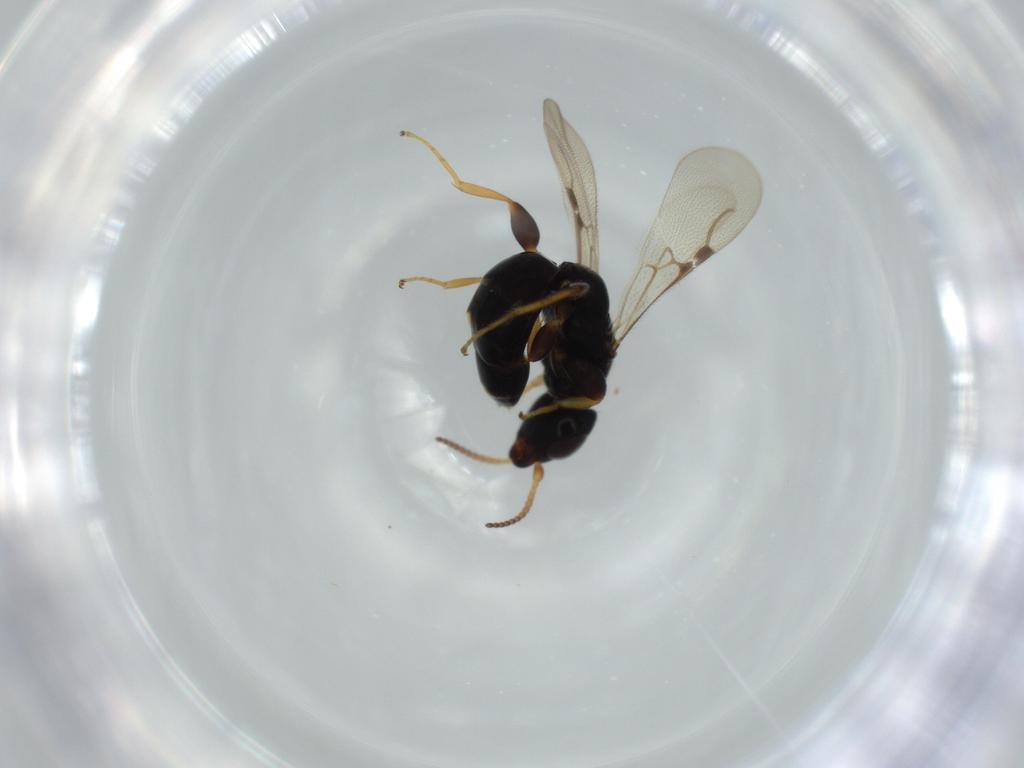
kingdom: Animalia
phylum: Arthropoda
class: Insecta
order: Hymenoptera
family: Bethylidae
